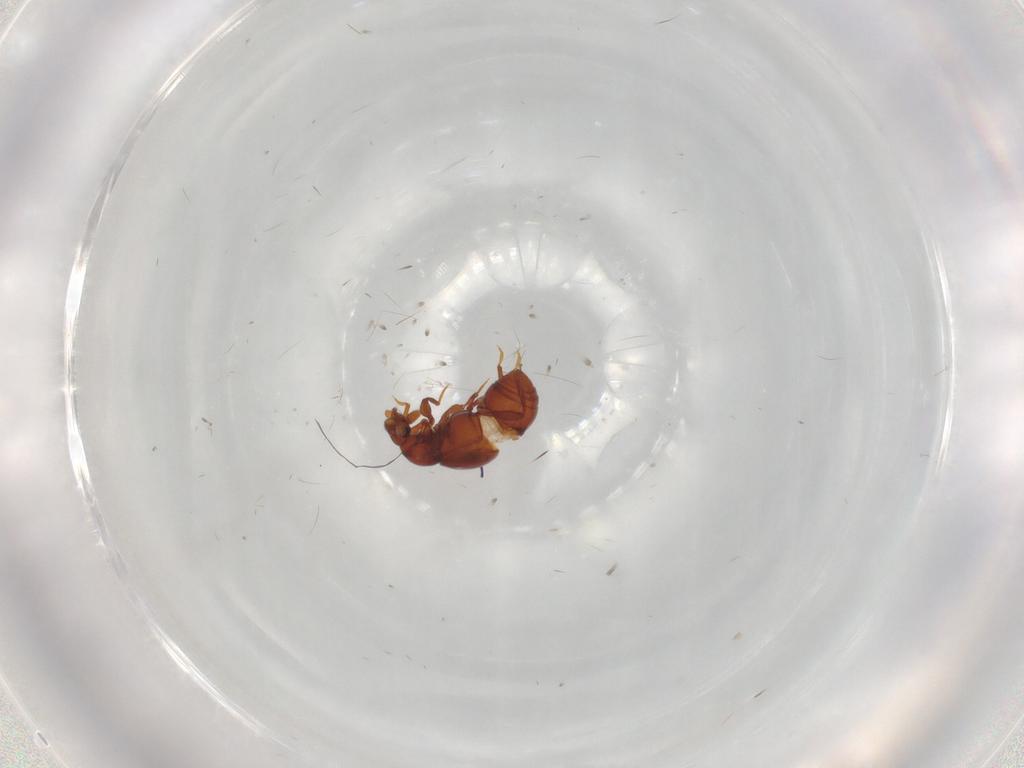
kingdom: Animalia
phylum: Arthropoda
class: Insecta
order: Coleoptera
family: Staphylinidae
